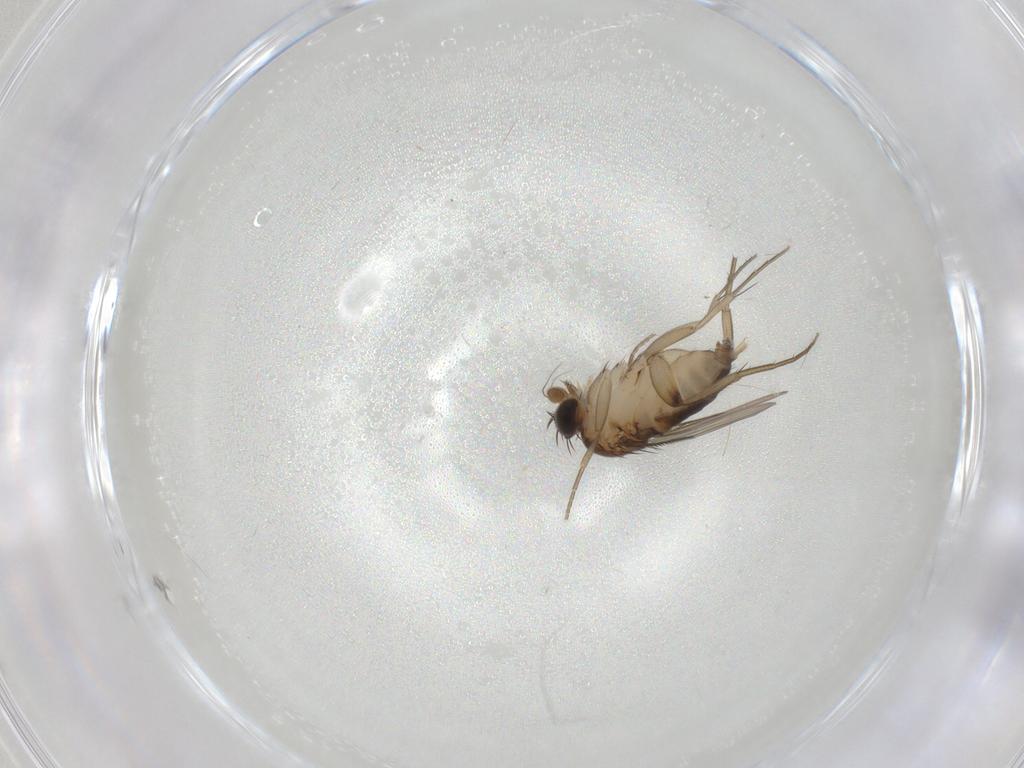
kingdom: Animalia
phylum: Arthropoda
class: Insecta
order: Diptera
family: Phoridae
